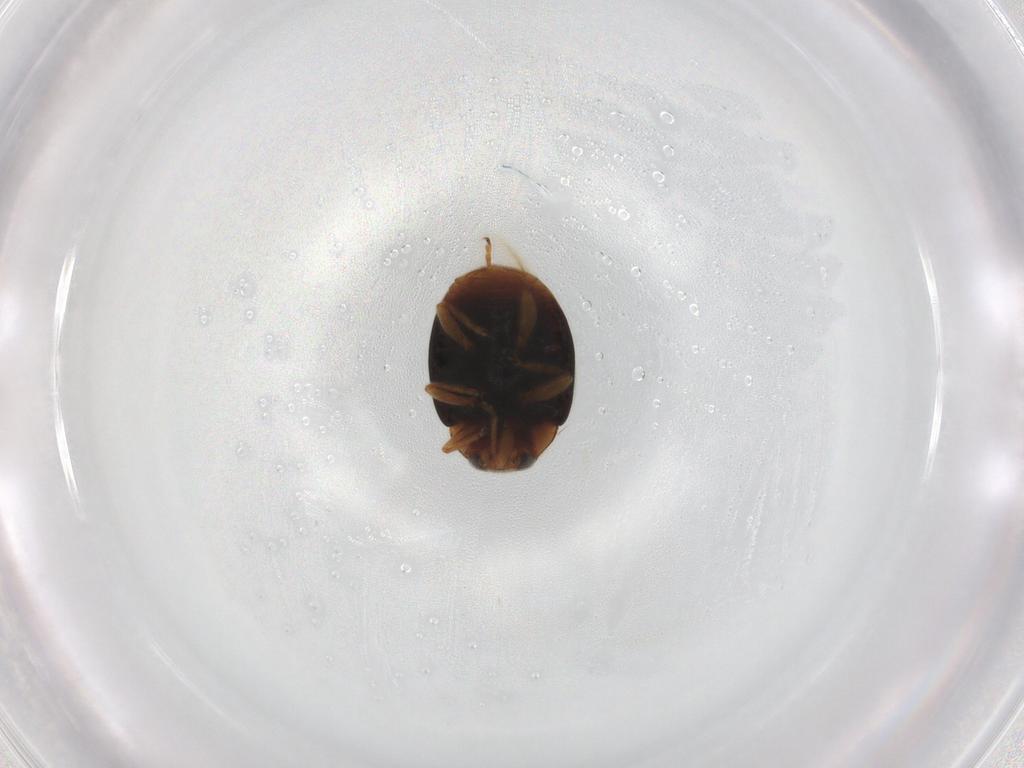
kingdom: Animalia
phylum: Arthropoda
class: Insecta
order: Coleoptera
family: Coccinellidae
